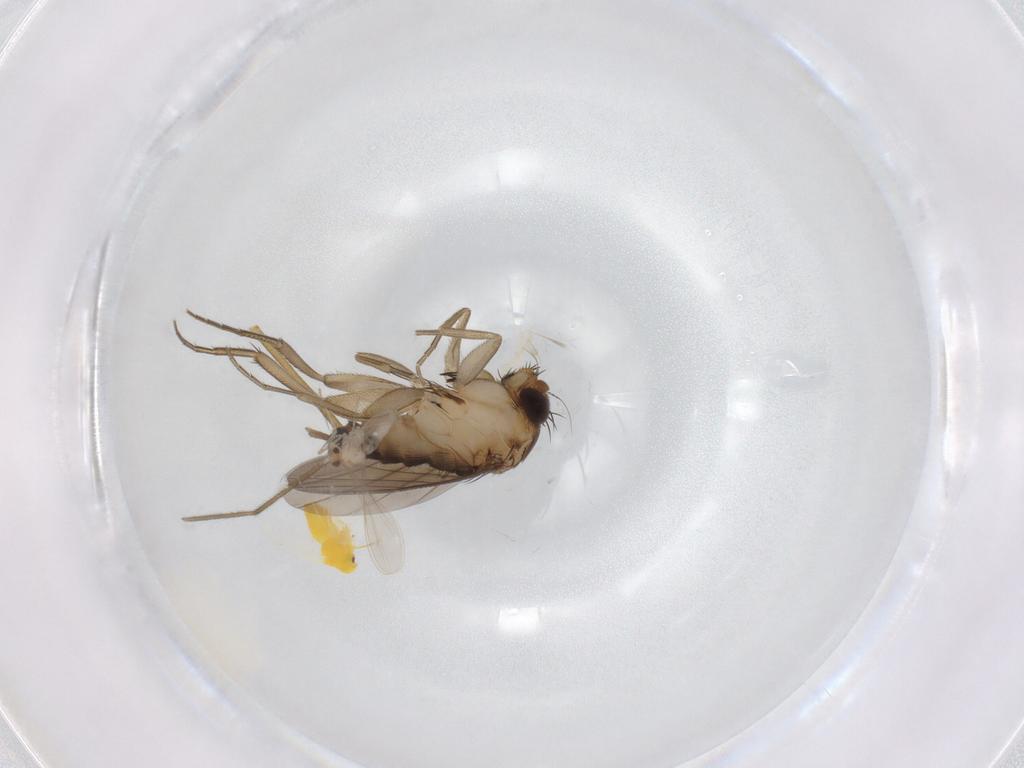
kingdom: Animalia
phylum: Arthropoda
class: Insecta
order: Diptera
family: Phoridae
